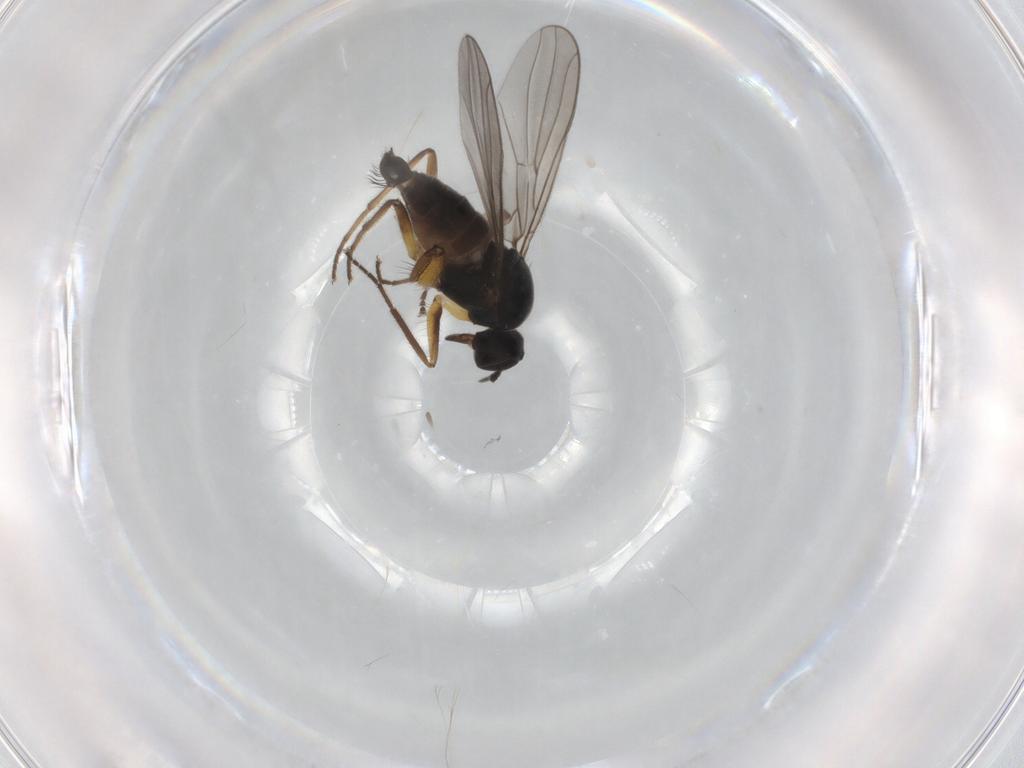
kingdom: Animalia
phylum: Arthropoda
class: Insecta
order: Diptera
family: Hybotidae
